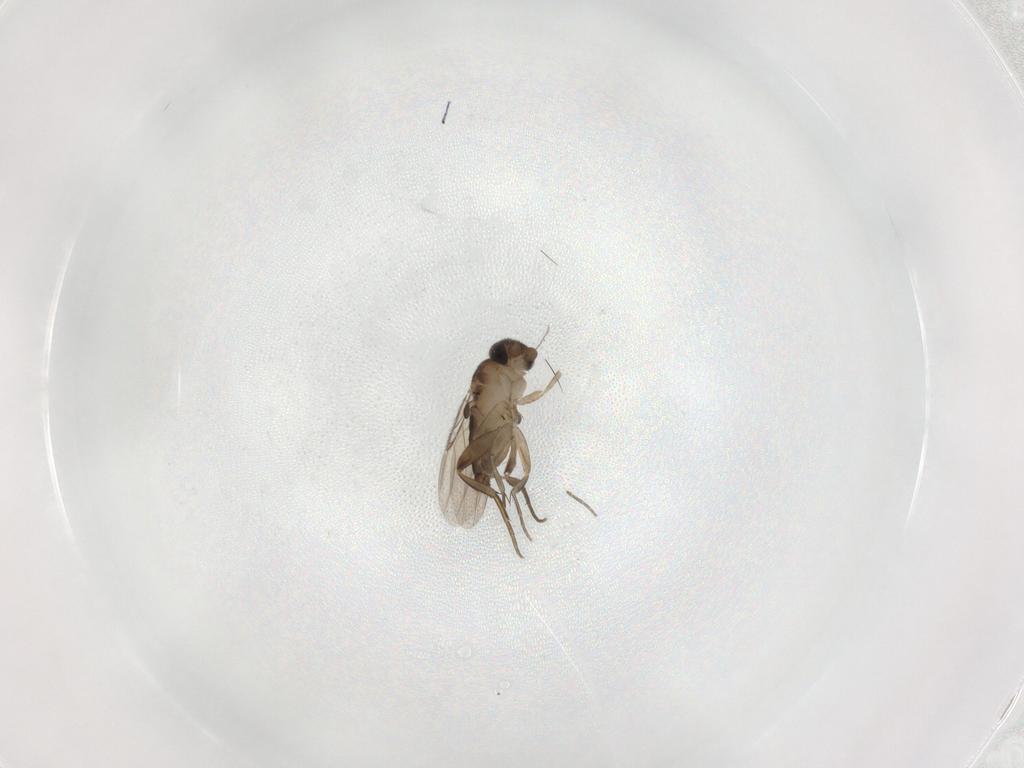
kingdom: Animalia
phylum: Arthropoda
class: Insecta
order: Diptera
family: Phoridae
